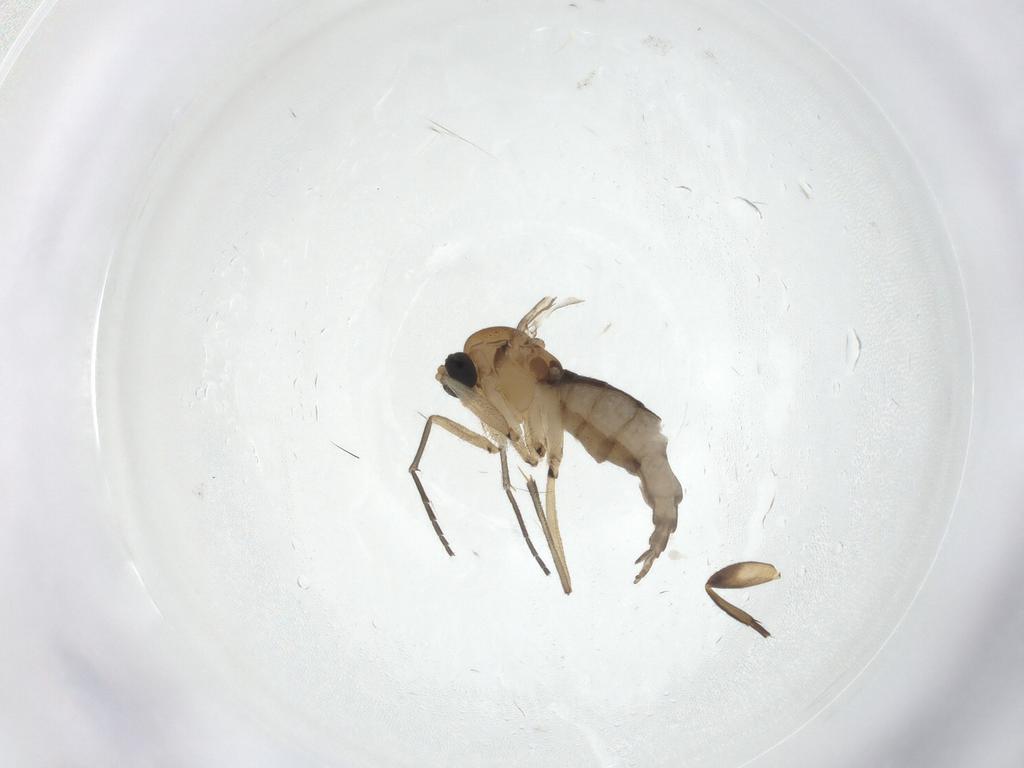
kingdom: Animalia
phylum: Arthropoda
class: Insecta
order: Diptera
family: Sciaridae
